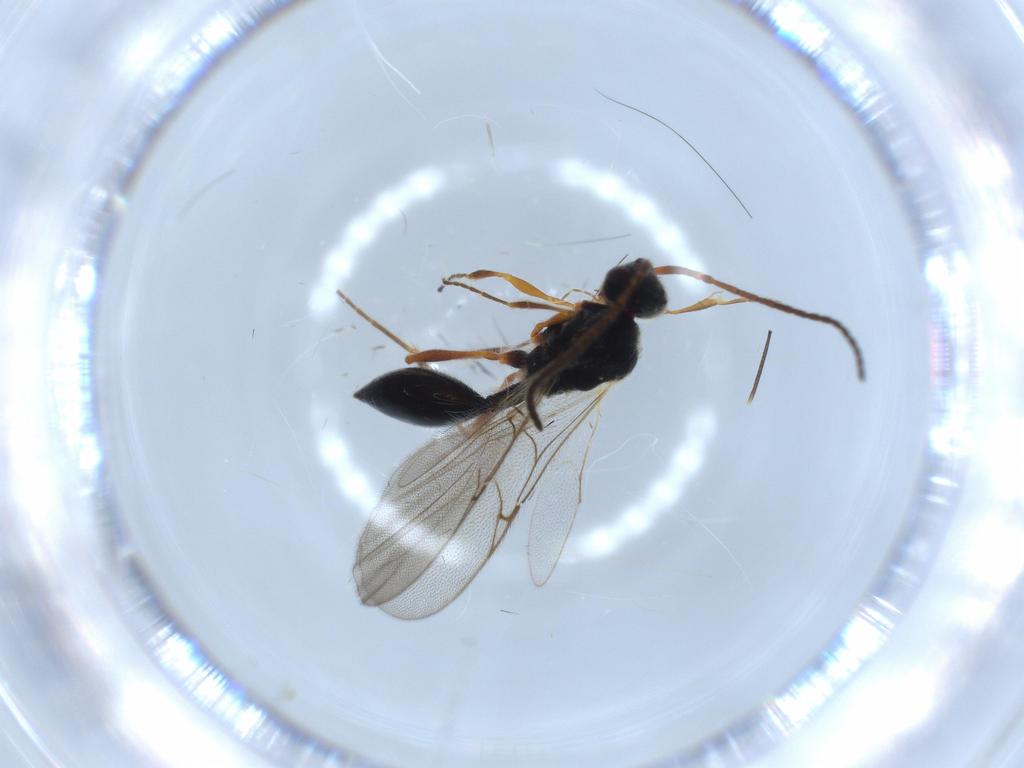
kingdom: Animalia
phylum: Arthropoda
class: Insecta
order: Hymenoptera
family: Diapriidae
